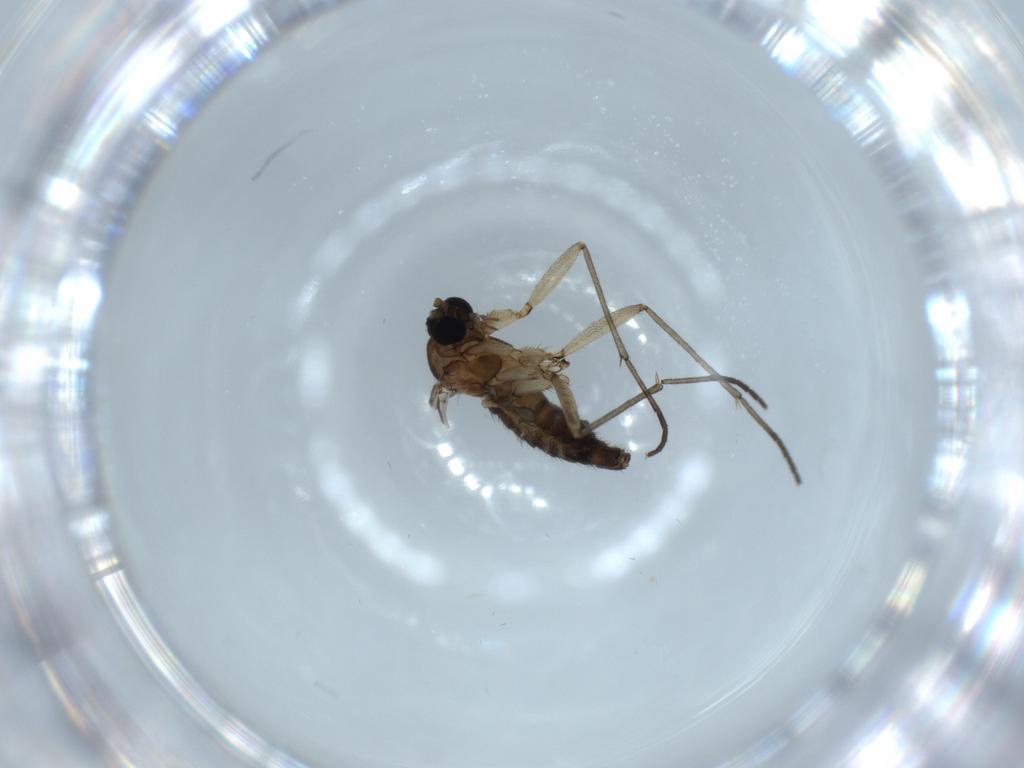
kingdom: Animalia
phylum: Arthropoda
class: Insecta
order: Diptera
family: Sciaridae
